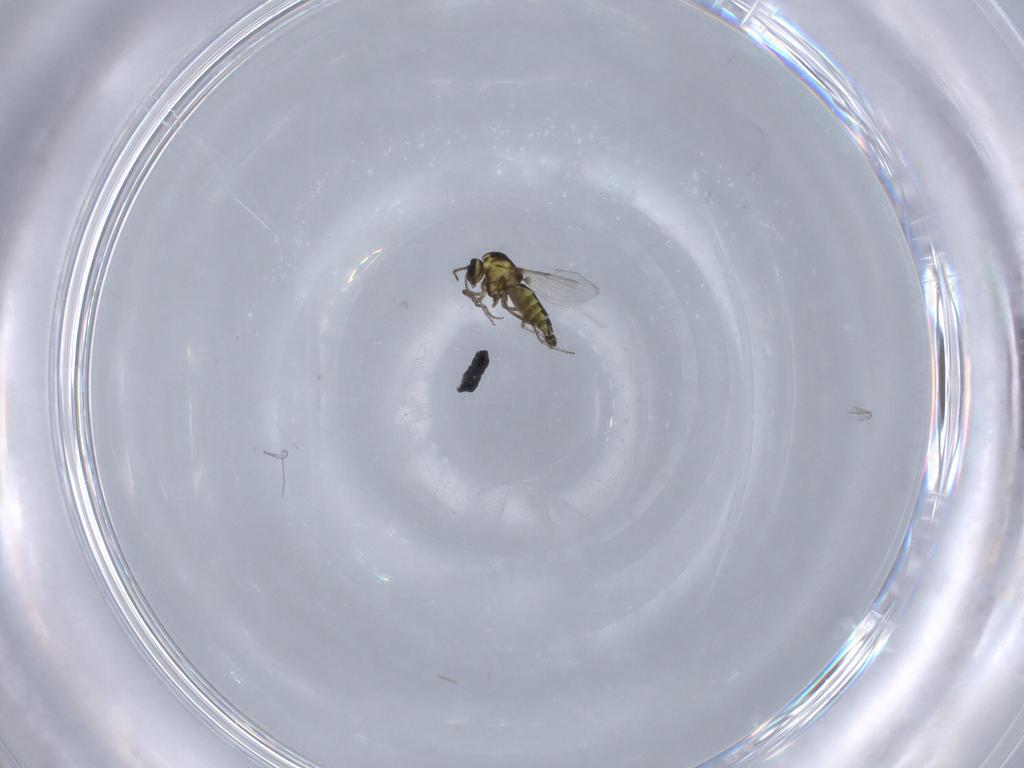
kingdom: Animalia
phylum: Arthropoda
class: Insecta
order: Diptera
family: Ceratopogonidae
